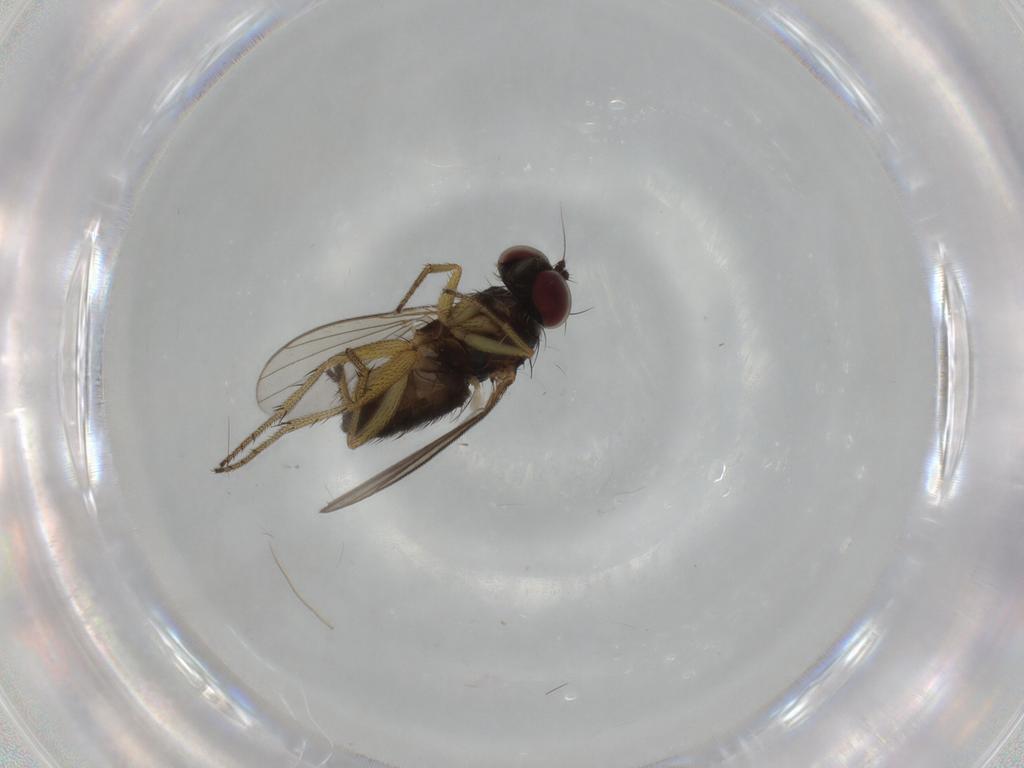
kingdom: Animalia
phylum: Arthropoda
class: Insecta
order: Diptera
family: Dolichopodidae
